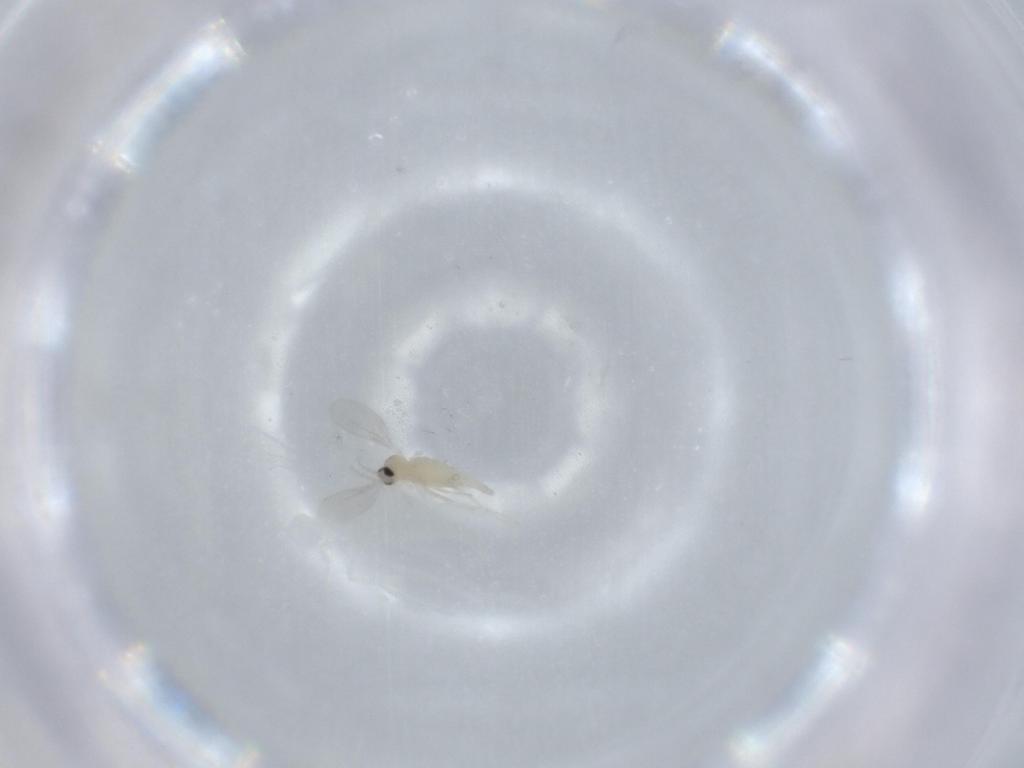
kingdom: Animalia
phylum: Arthropoda
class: Insecta
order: Diptera
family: Cecidomyiidae
